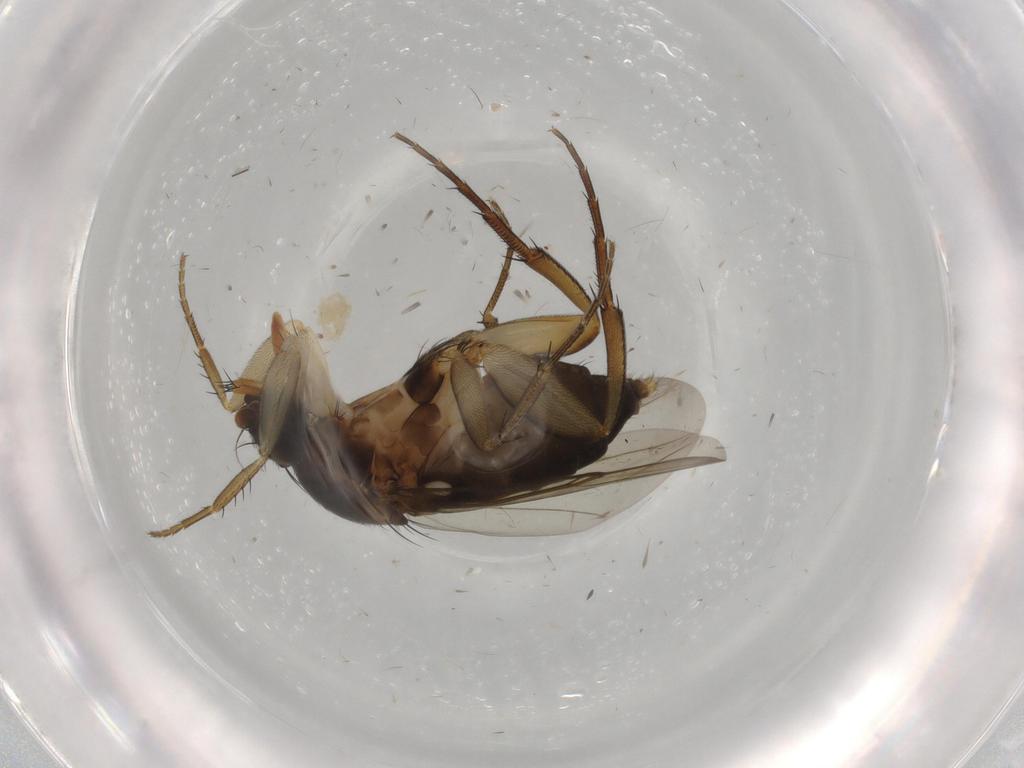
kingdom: Animalia
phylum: Arthropoda
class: Insecta
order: Diptera
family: Phoridae
